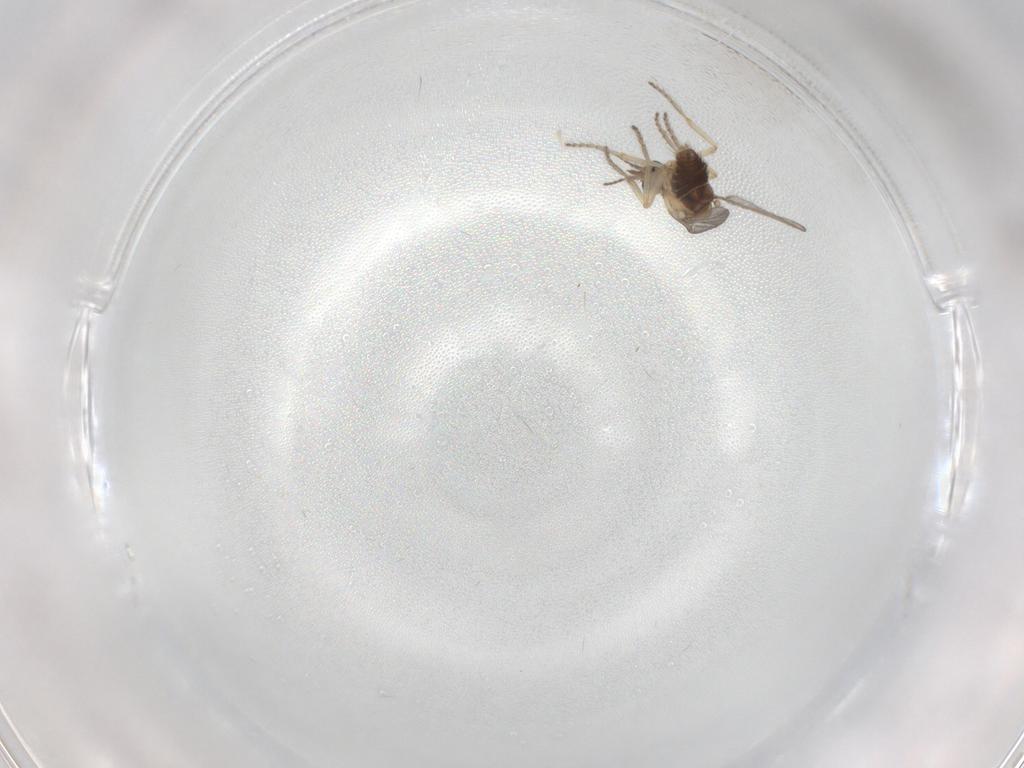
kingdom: Animalia
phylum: Arthropoda
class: Insecta
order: Diptera
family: Ceratopogonidae
